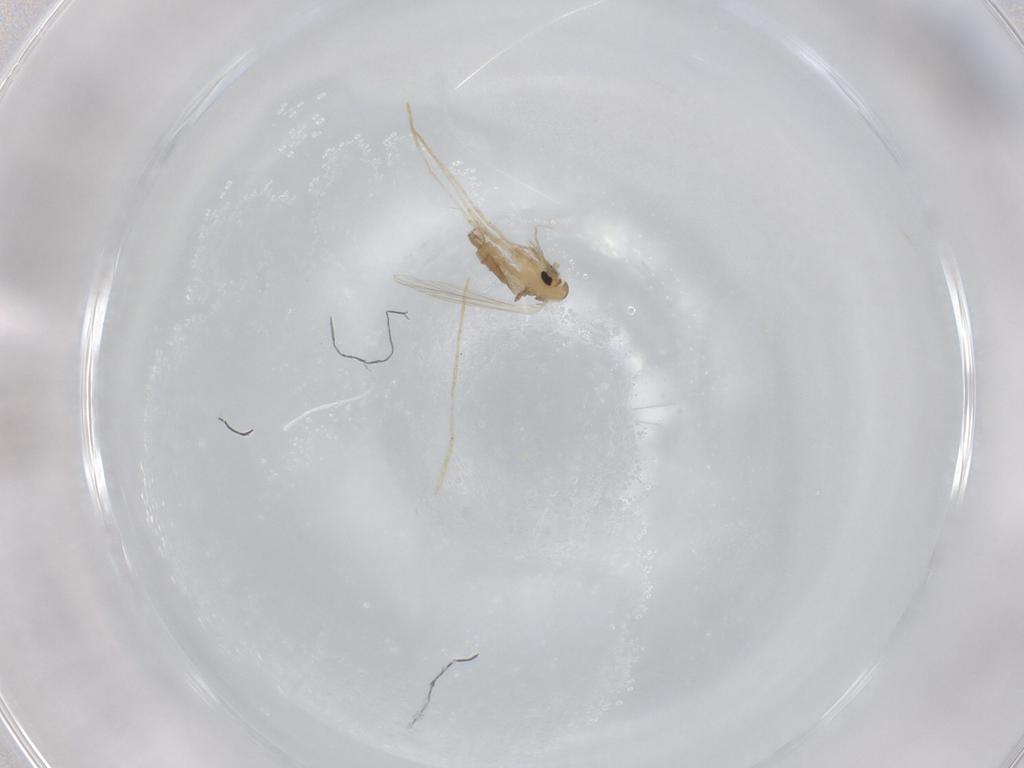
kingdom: Animalia
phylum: Arthropoda
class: Insecta
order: Diptera
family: Psychodidae
